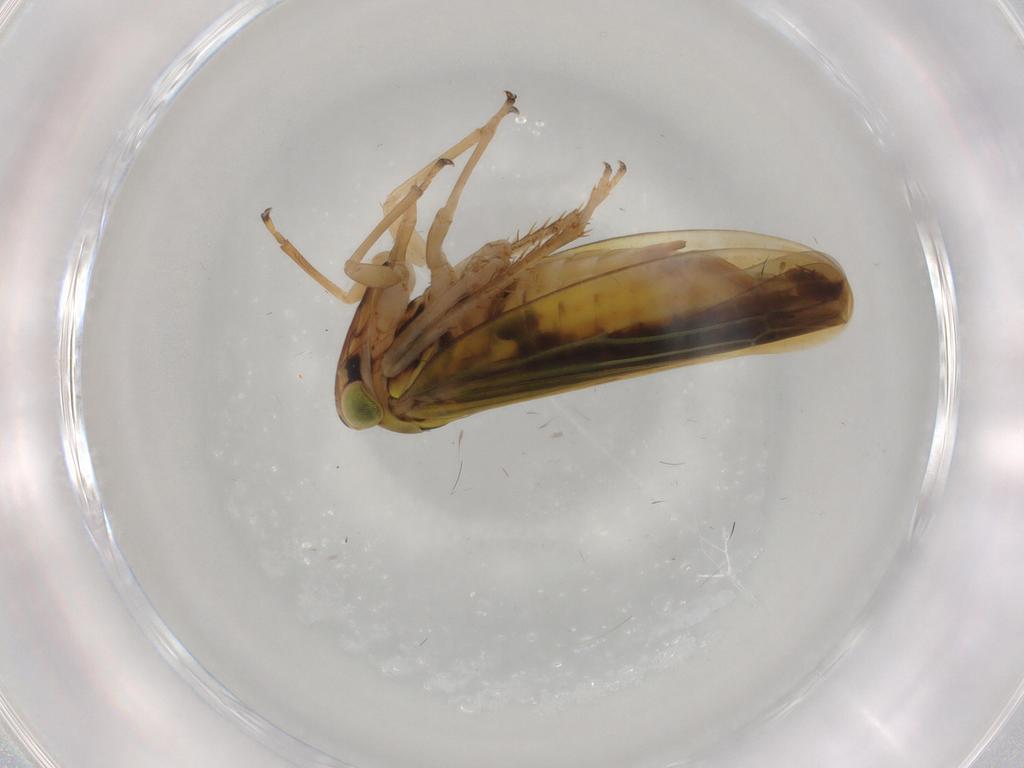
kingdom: Animalia
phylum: Arthropoda
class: Insecta
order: Hemiptera
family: Cicadellidae
